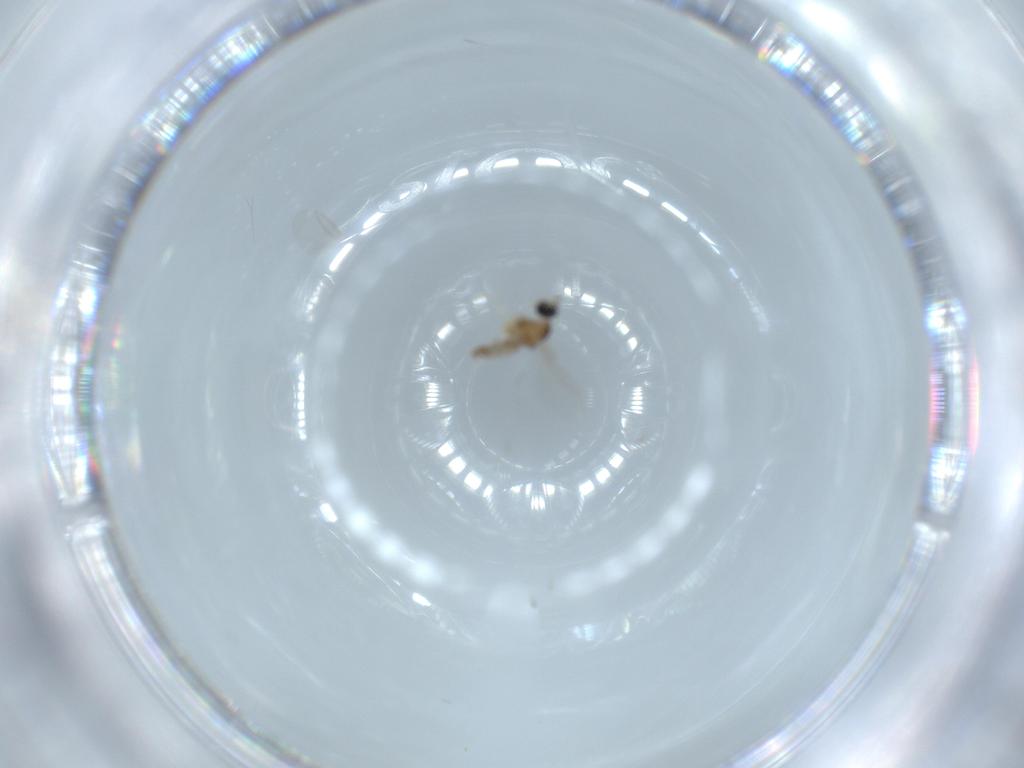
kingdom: Animalia
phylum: Arthropoda
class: Insecta
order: Diptera
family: Cecidomyiidae
